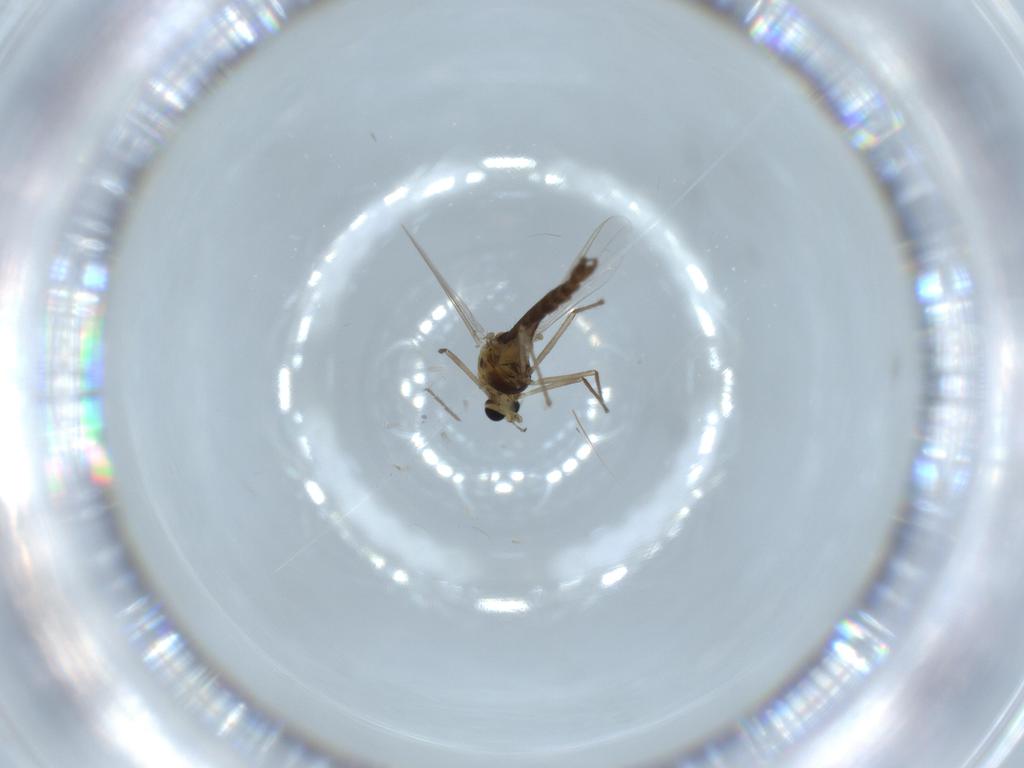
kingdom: Animalia
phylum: Arthropoda
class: Insecta
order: Diptera
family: Chironomidae
